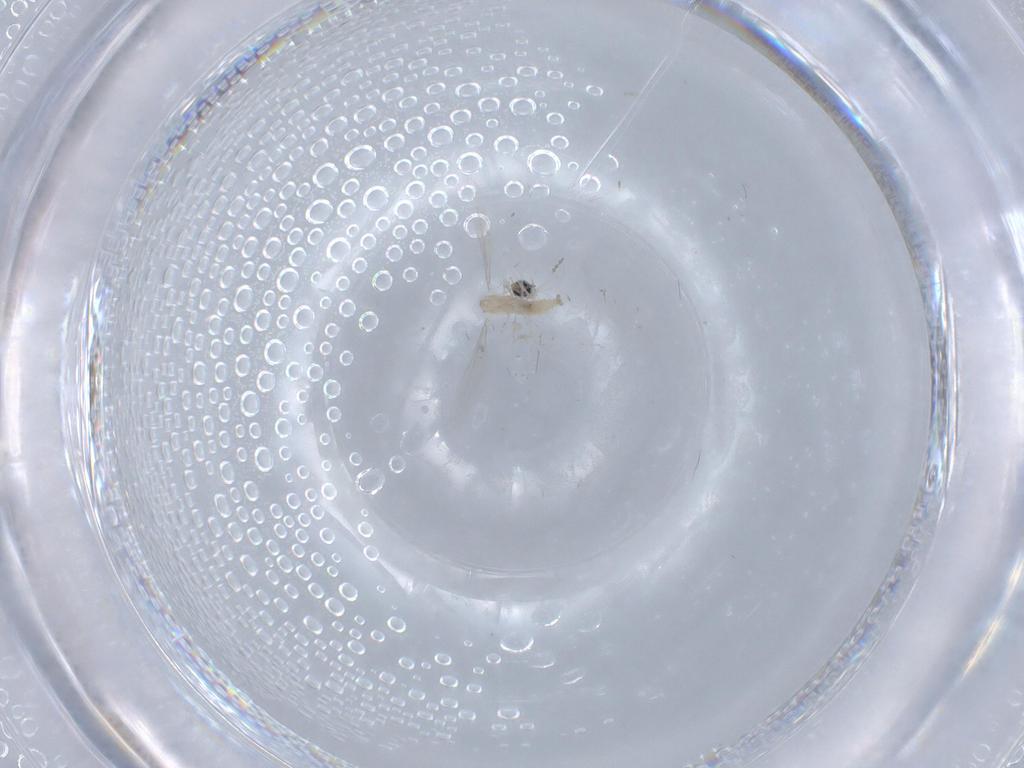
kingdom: Animalia
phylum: Arthropoda
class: Insecta
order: Diptera
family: Cecidomyiidae
